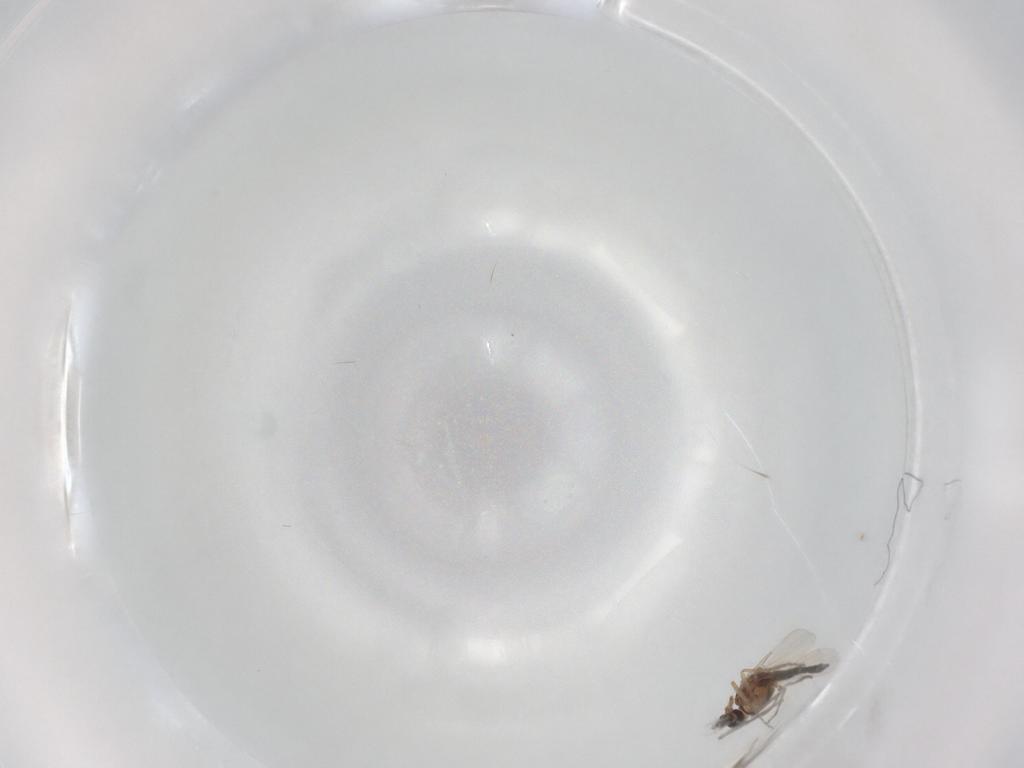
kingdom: Animalia
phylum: Arthropoda
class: Insecta
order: Diptera
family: Ceratopogonidae
